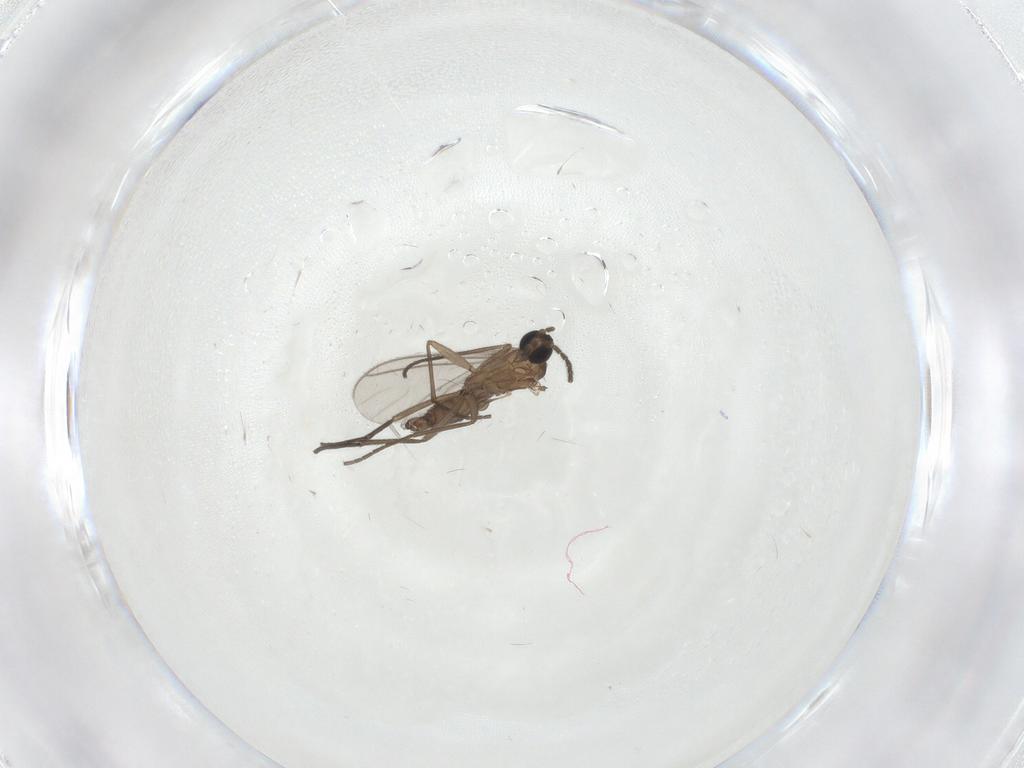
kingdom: Animalia
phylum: Arthropoda
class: Insecta
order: Diptera
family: Sciaridae
